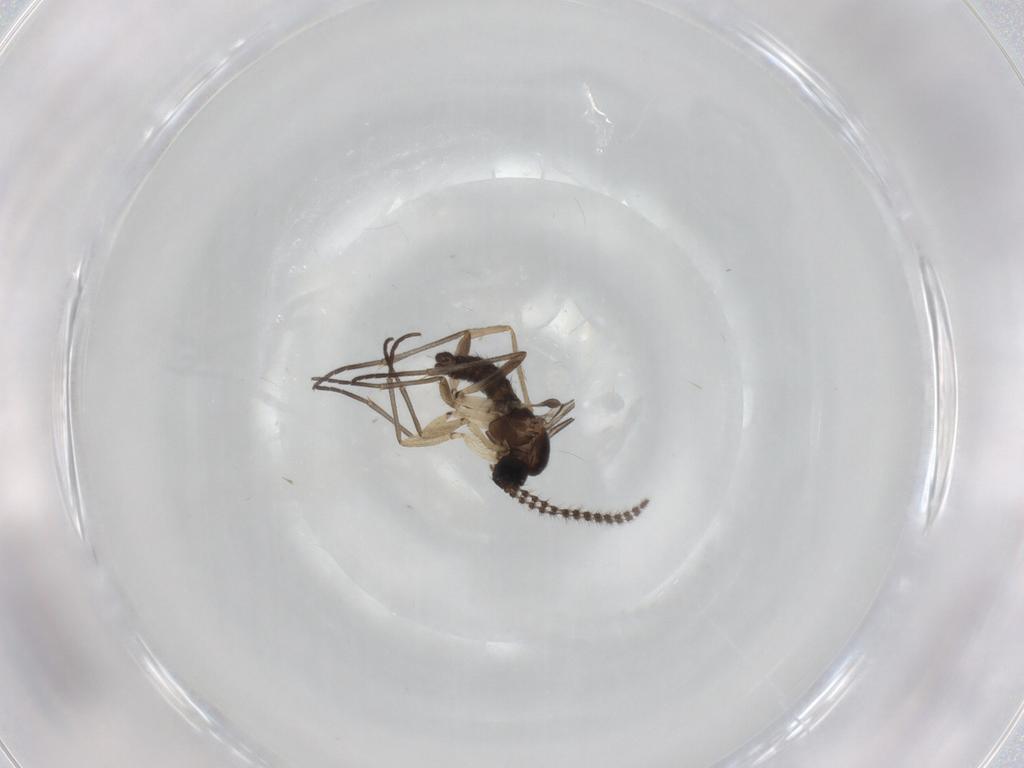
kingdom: Animalia
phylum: Arthropoda
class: Insecta
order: Diptera
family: Sciaridae
